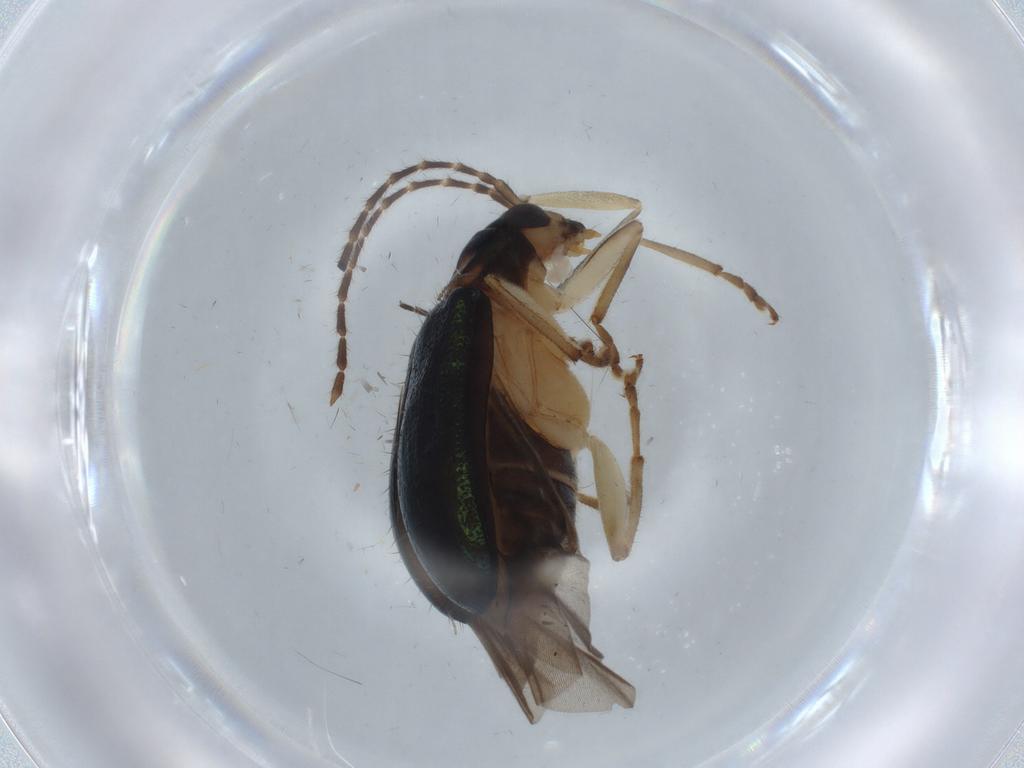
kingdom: Animalia
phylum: Arthropoda
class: Insecta
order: Coleoptera
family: Chrysomelidae
